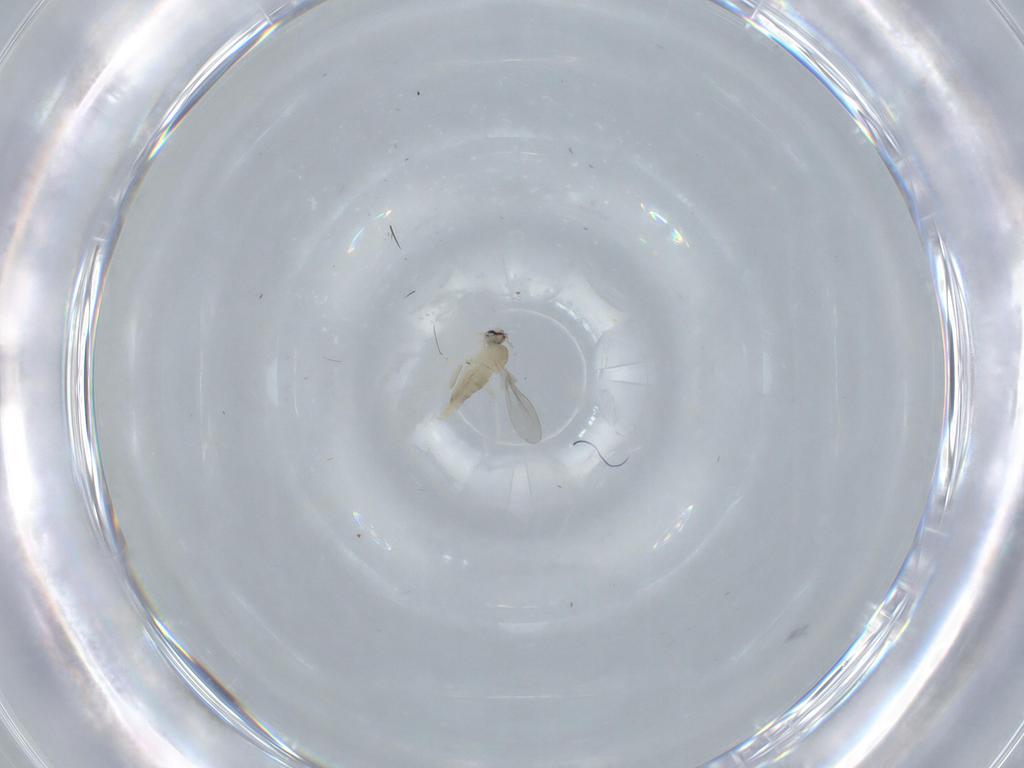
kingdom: Animalia
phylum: Arthropoda
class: Insecta
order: Diptera
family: Cecidomyiidae
